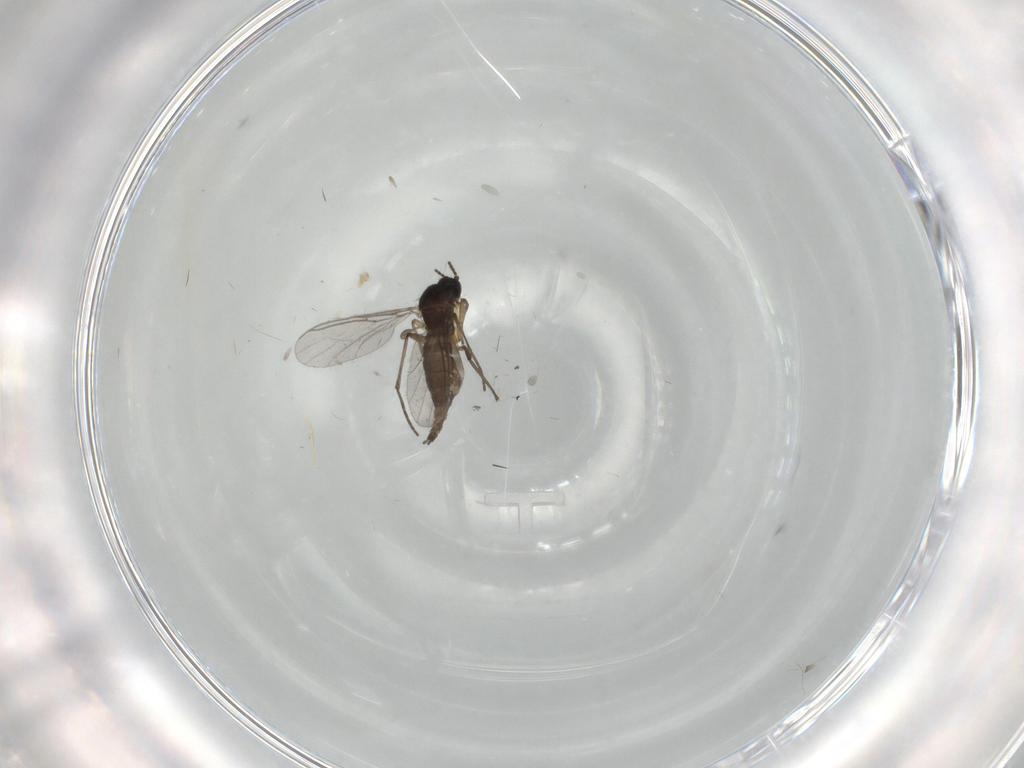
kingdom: Animalia
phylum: Arthropoda
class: Insecta
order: Diptera
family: Sciaridae
